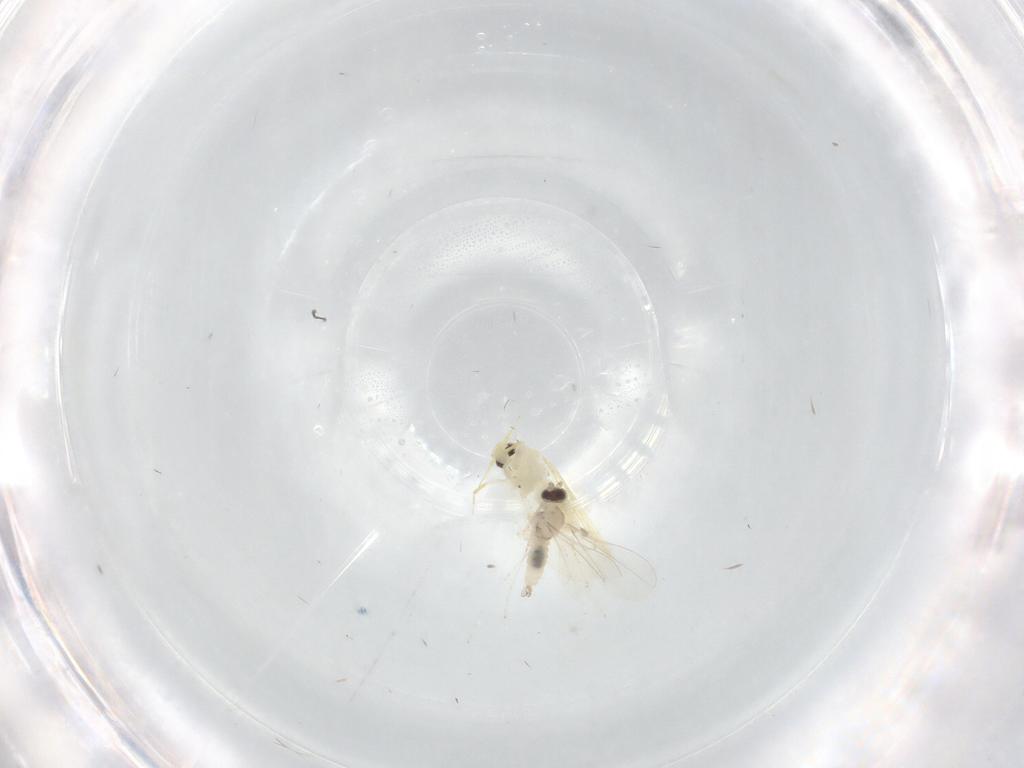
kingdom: Animalia
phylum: Arthropoda
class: Insecta
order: Diptera
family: Cecidomyiidae
